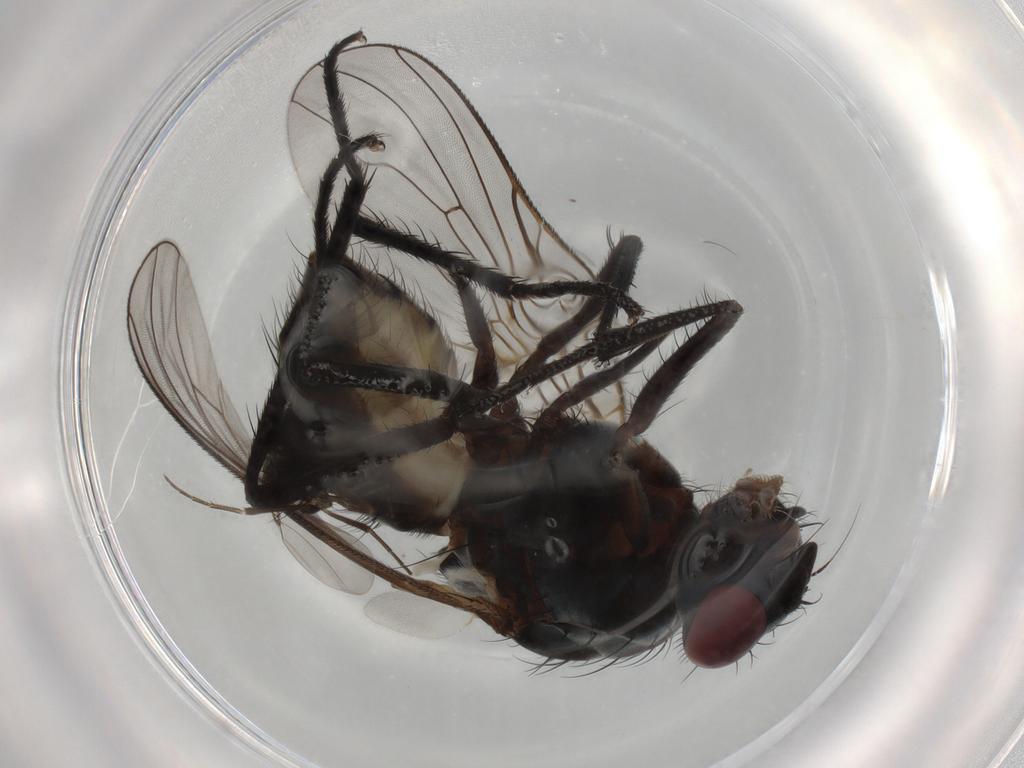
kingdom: Animalia
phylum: Arthropoda
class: Insecta
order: Diptera
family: Anthomyiidae
